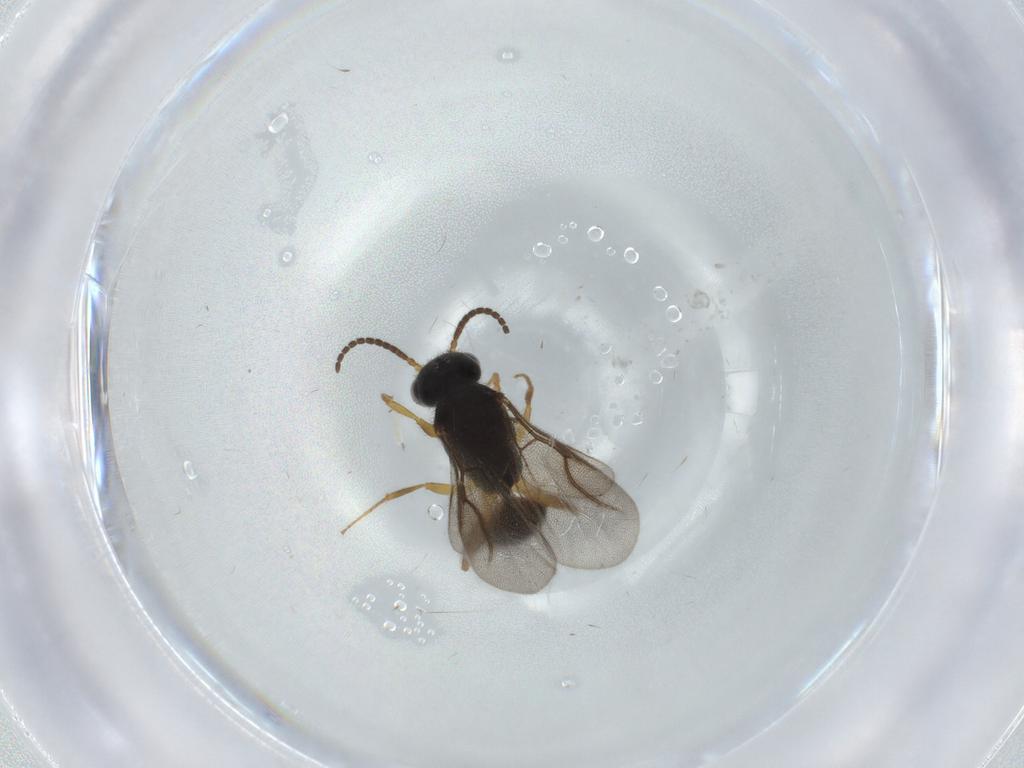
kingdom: Animalia
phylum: Arthropoda
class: Insecta
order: Hymenoptera
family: Bethylidae
